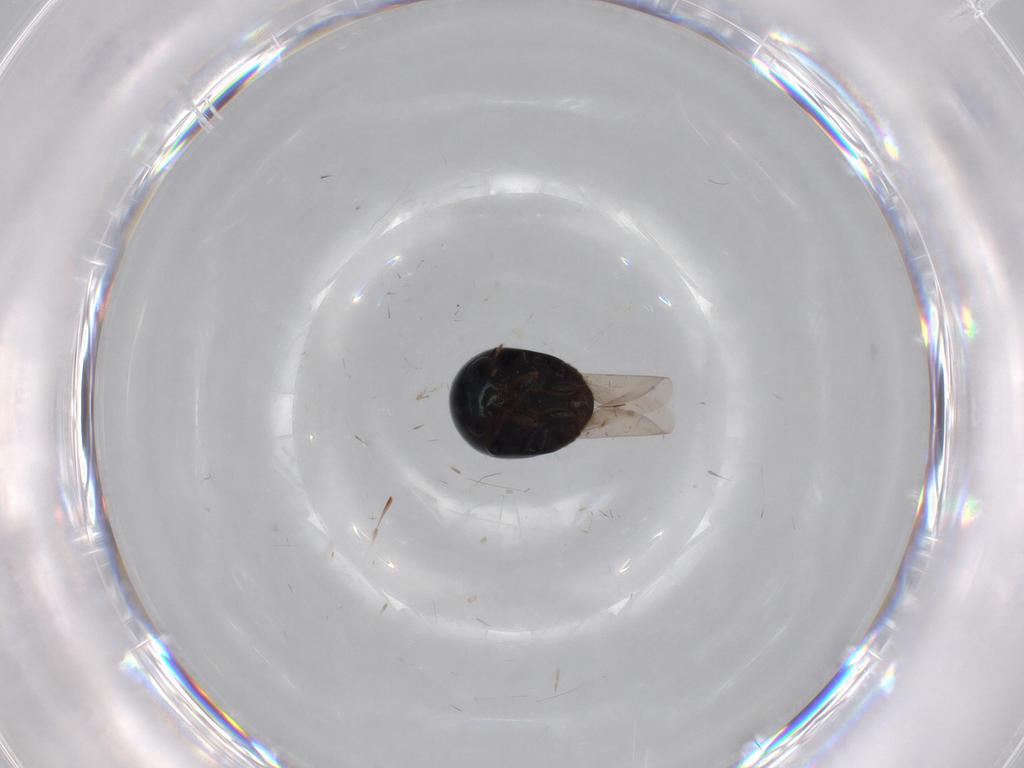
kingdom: Animalia
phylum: Arthropoda
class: Insecta
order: Coleoptera
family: Cybocephalidae
